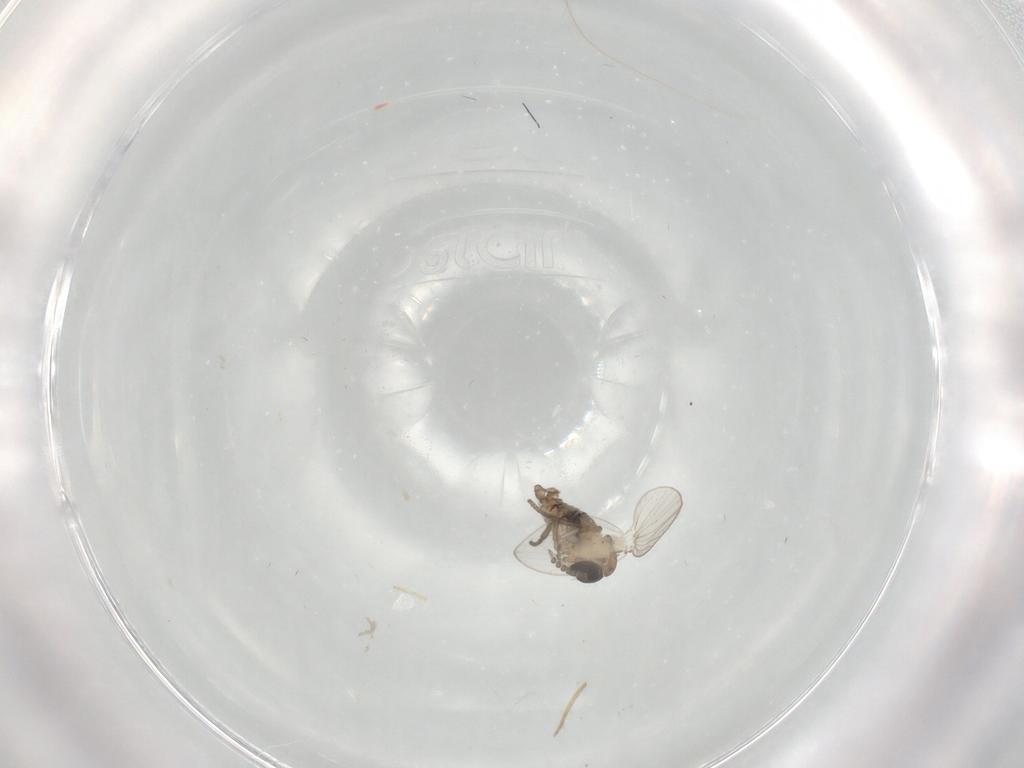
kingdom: Animalia
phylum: Arthropoda
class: Insecta
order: Diptera
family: Psychodidae
